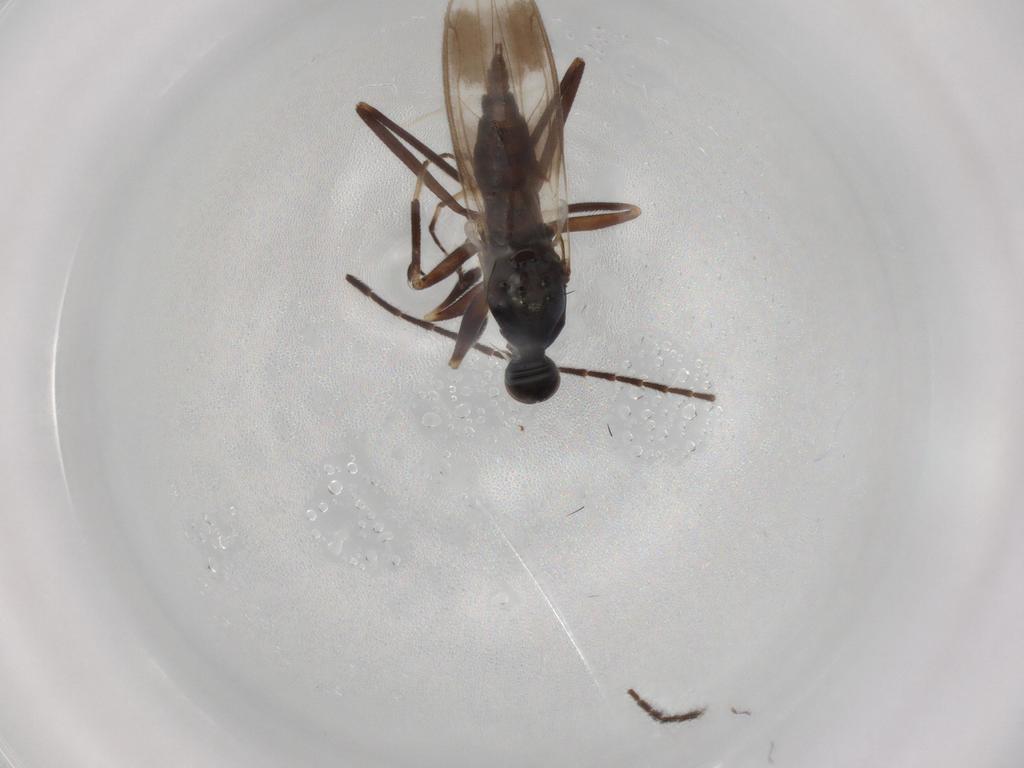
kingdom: Animalia
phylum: Arthropoda
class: Insecta
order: Diptera
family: Hybotidae
